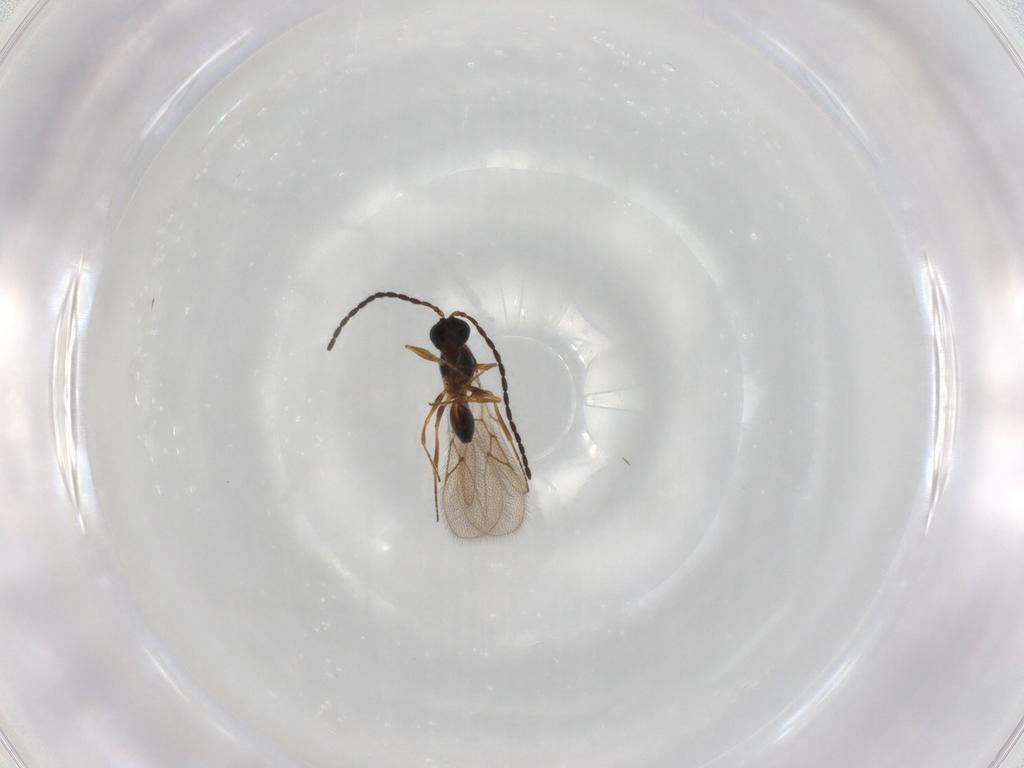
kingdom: Animalia
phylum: Arthropoda
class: Insecta
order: Hymenoptera
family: Figitidae
